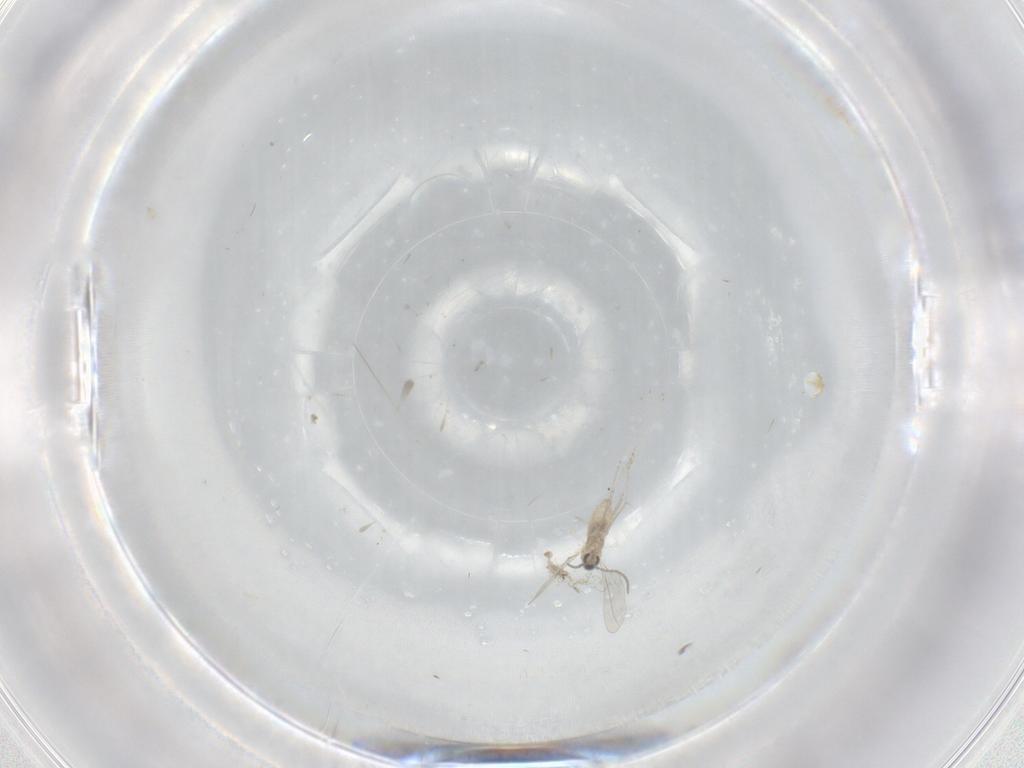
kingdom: Animalia
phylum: Arthropoda
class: Insecta
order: Diptera
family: Cecidomyiidae
